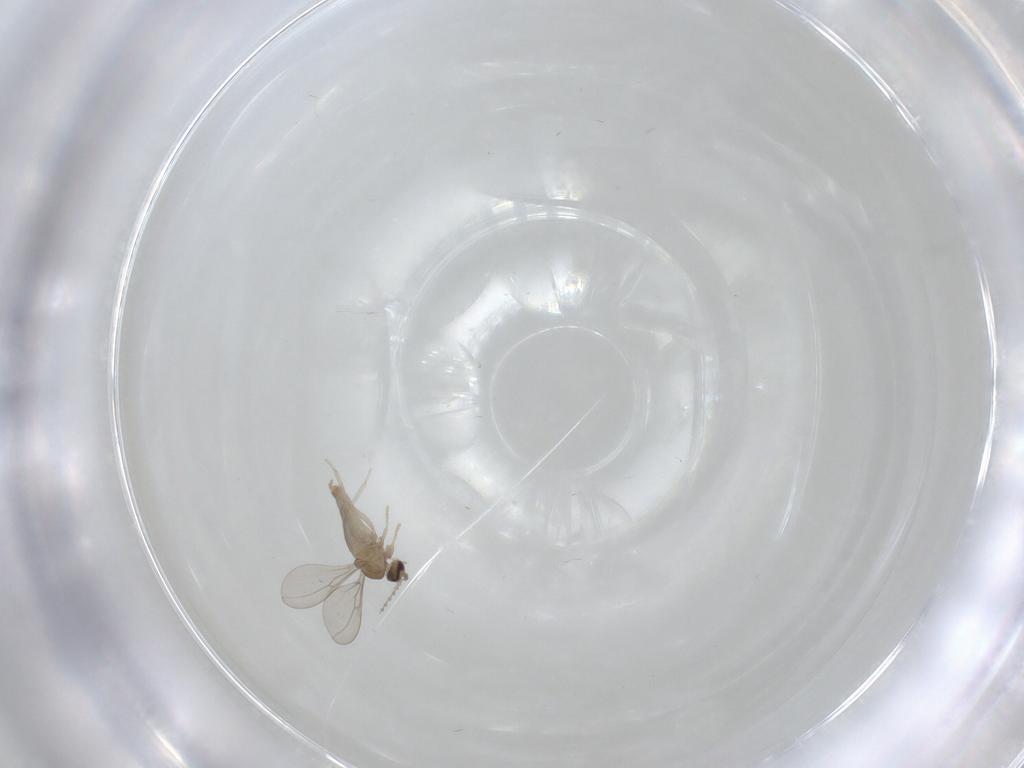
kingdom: Animalia
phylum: Arthropoda
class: Insecta
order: Diptera
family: Cecidomyiidae
